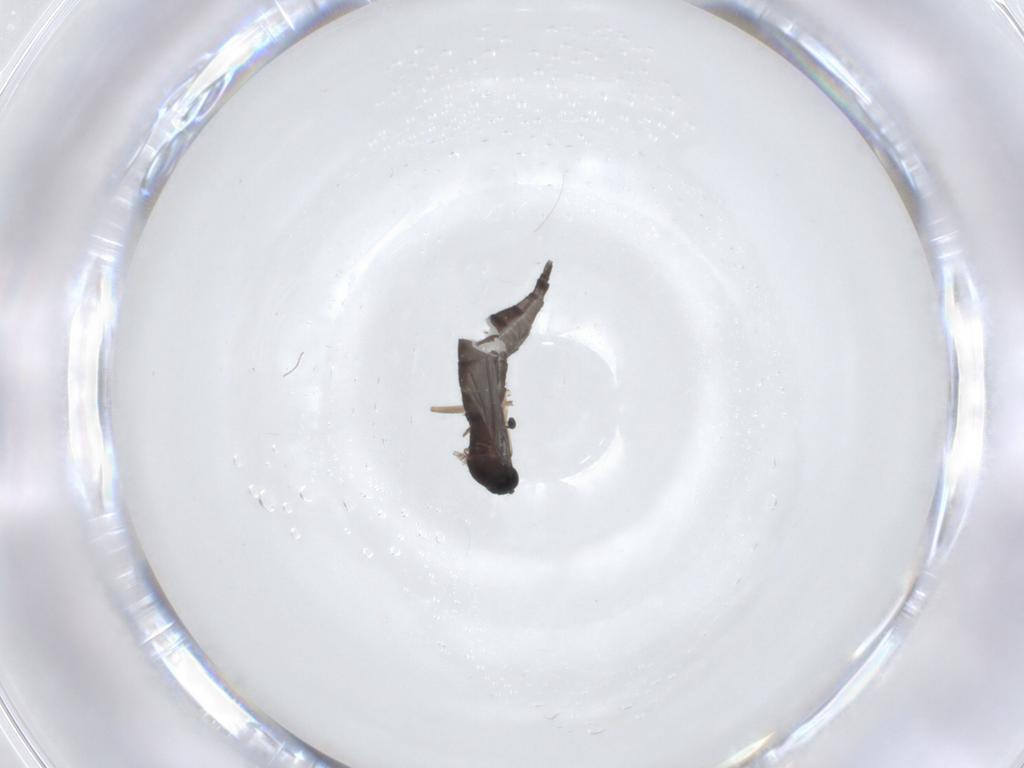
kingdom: Animalia
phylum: Arthropoda
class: Insecta
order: Diptera
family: Sciaridae
